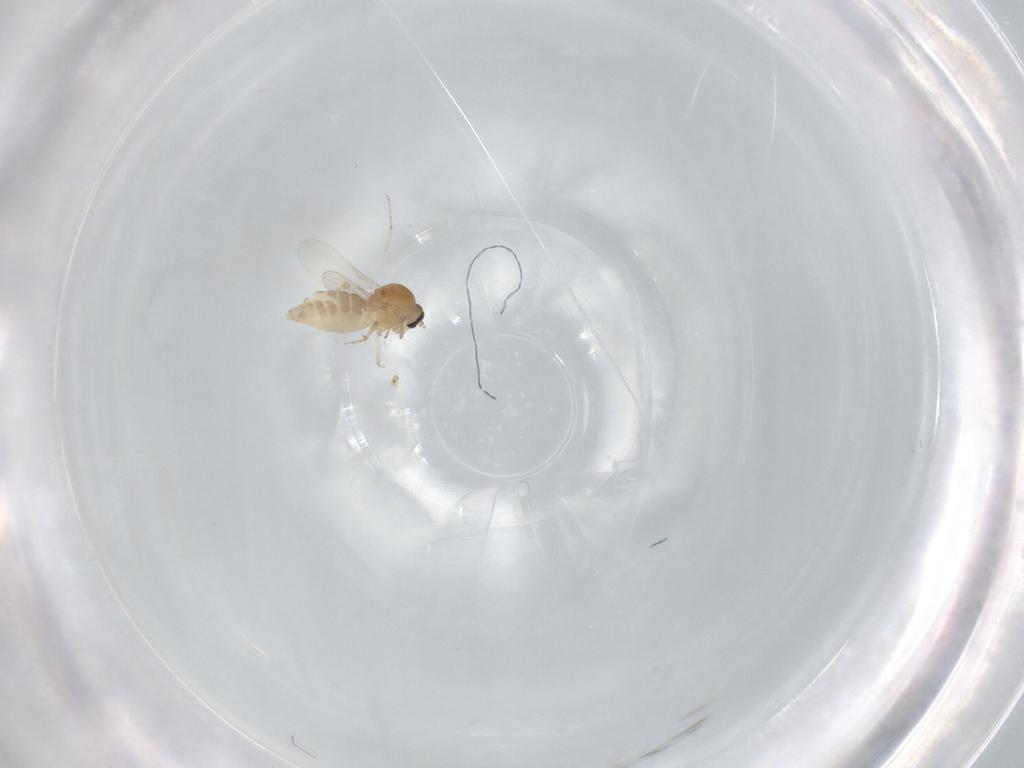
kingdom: Animalia
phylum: Arthropoda
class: Insecta
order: Diptera
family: Ceratopogonidae
